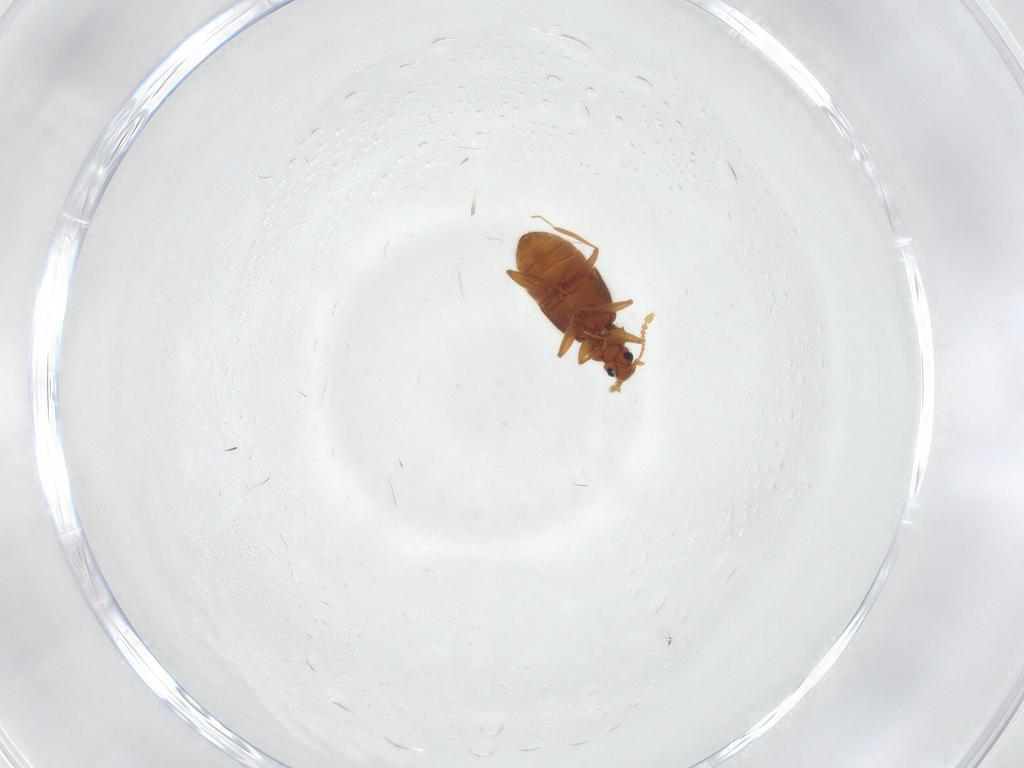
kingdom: Animalia
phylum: Arthropoda
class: Insecta
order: Coleoptera
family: Staphylinidae
